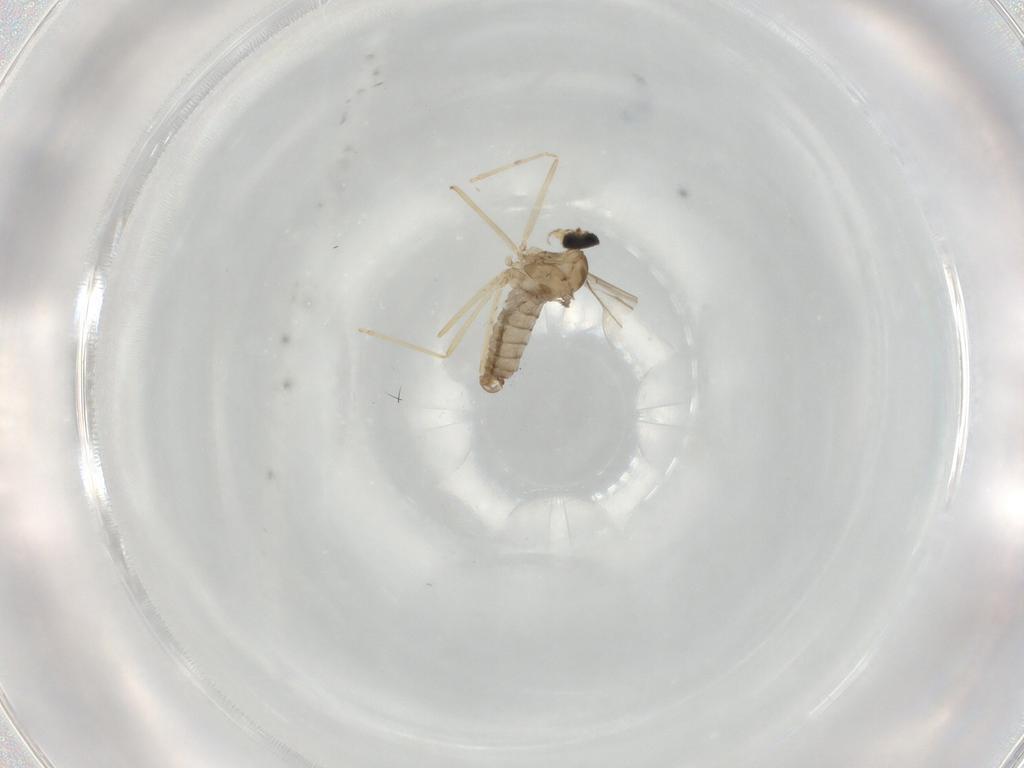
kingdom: Animalia
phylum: Arthropoda
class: Insecta
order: Diptera
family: Cecidomyiidae
